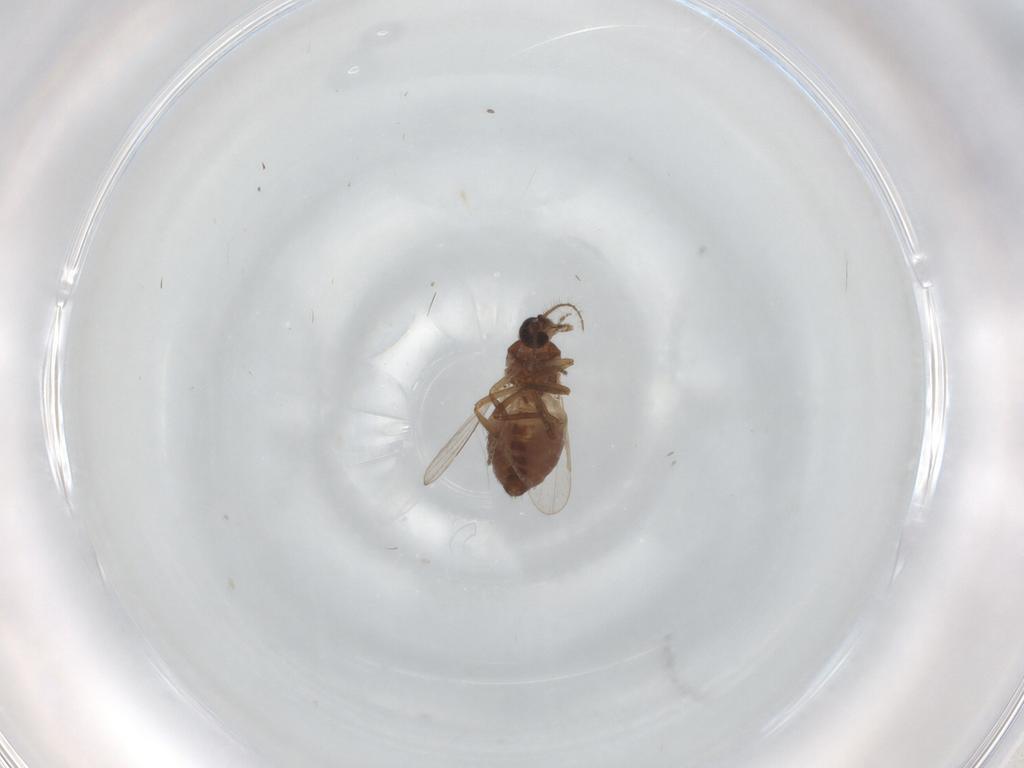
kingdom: Animalia
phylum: Arthropoda
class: Insecta
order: Diptera
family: Ceratopogonidae
